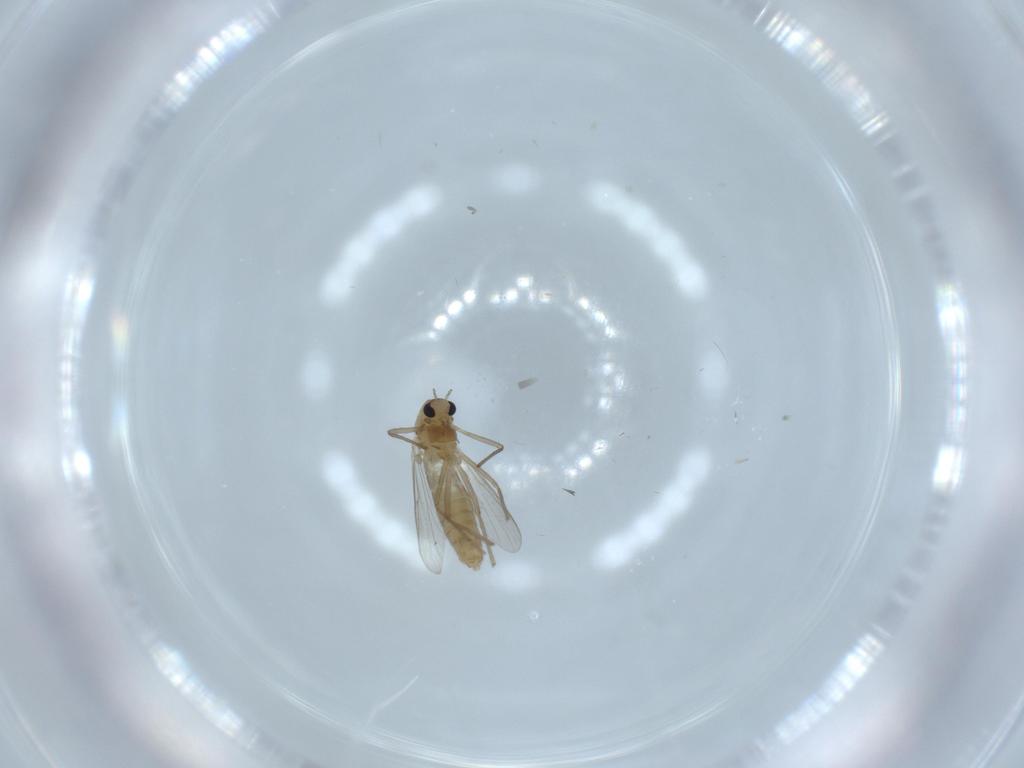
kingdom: Animalia
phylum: Arthropoda
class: Insecta
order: Diptera
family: Chironomidae
